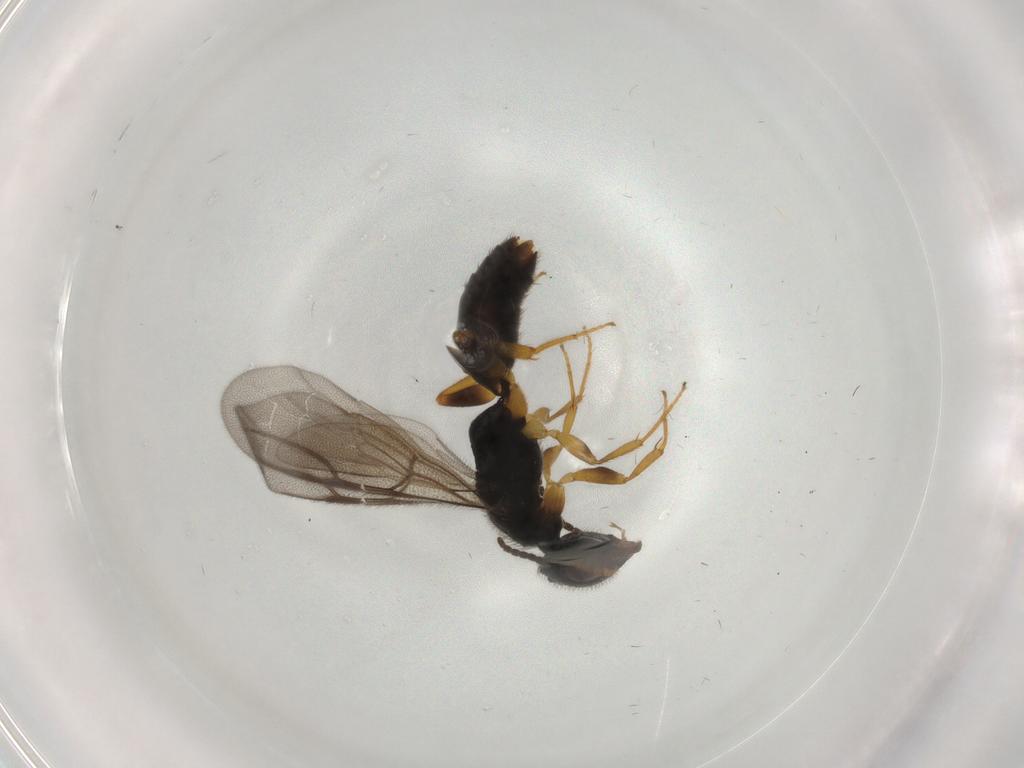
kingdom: Animalia
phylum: Arthropoda
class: Insecta
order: Hymenoptera
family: Bethylidae
